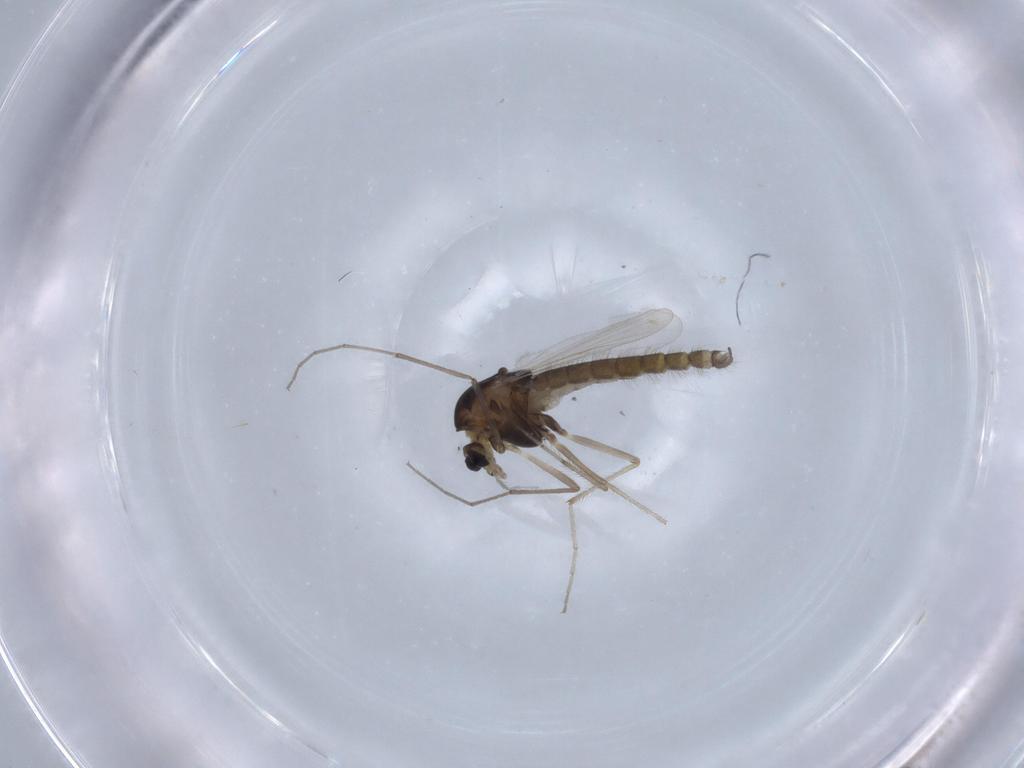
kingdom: Animalia
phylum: Arthropoda
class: Insecta
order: Diptera
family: Chironomidae
